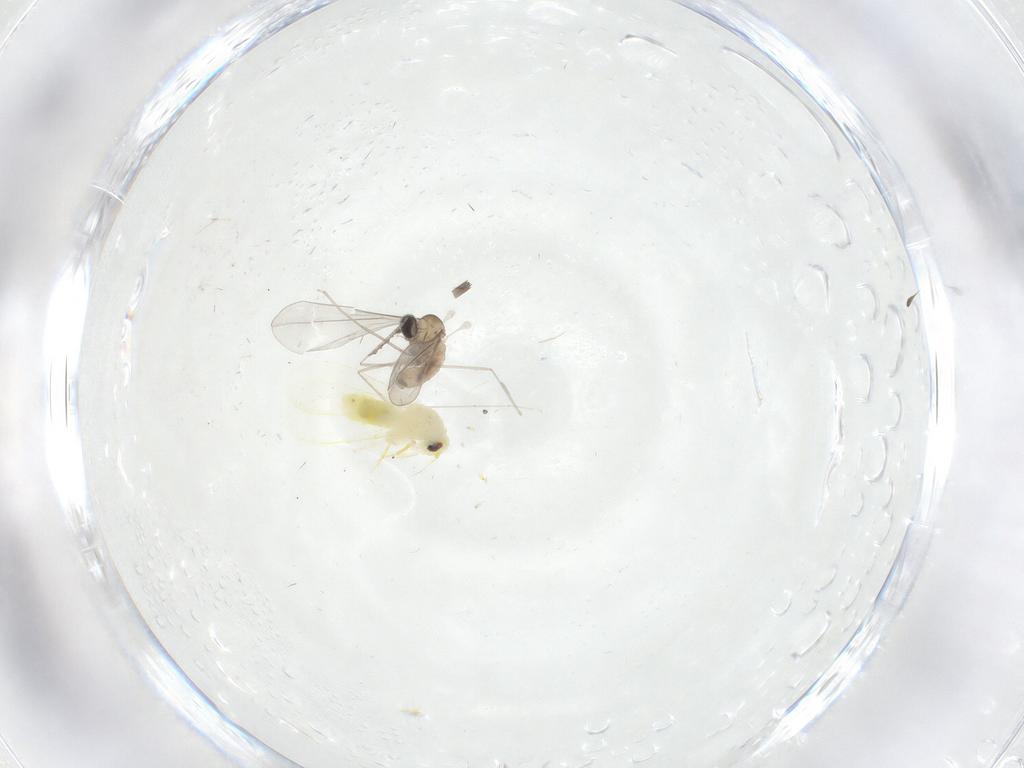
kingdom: Animalia
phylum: Arthropoda
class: Insecta
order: Diptera
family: Cecidomyiidae
